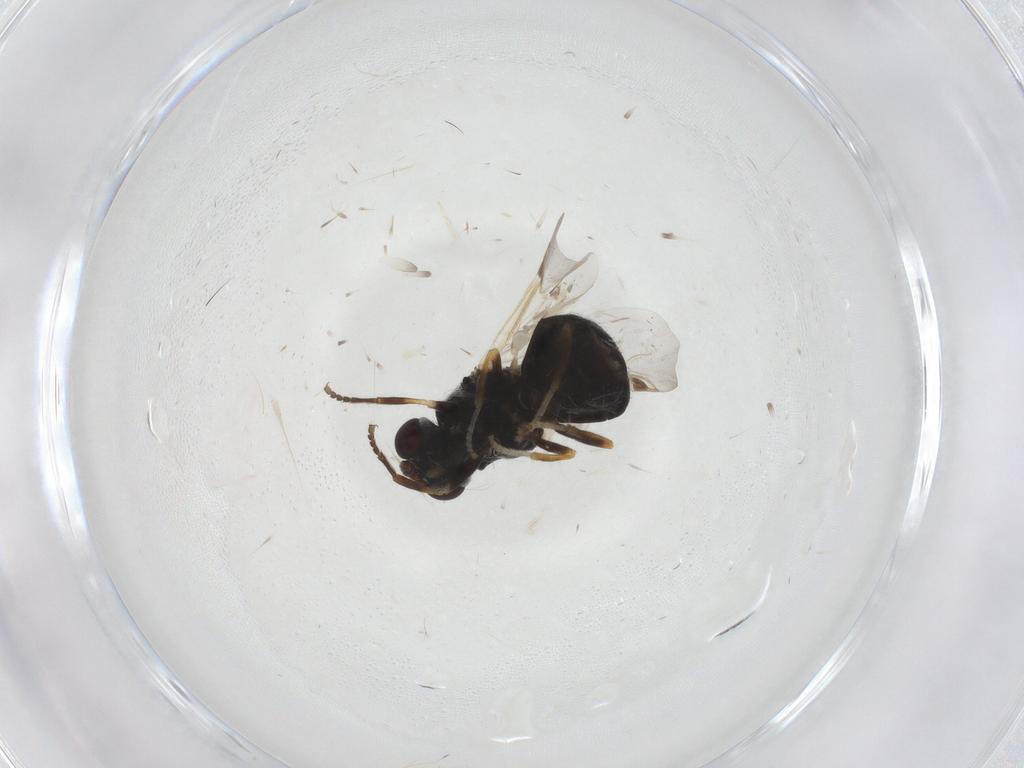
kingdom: Animalia
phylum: Arthropoda
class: Insecta
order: Diptera
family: Stratiomyidae
